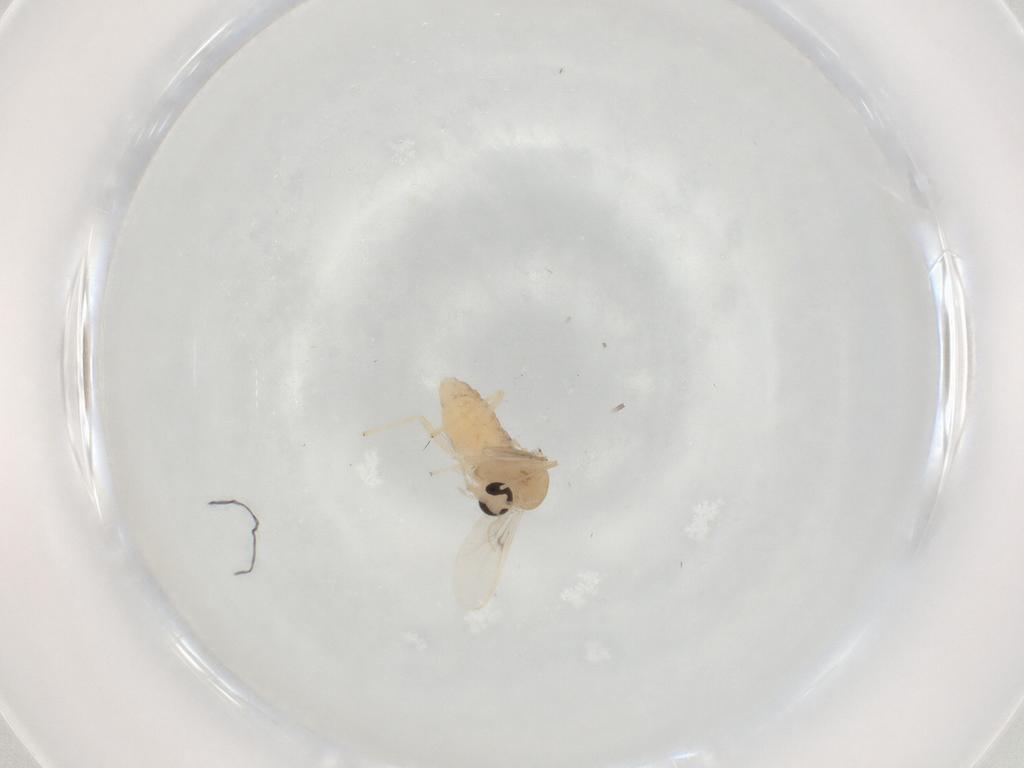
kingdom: Animalia
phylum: Arthropoda
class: Insecta
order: Diptera
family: Chironomidae
